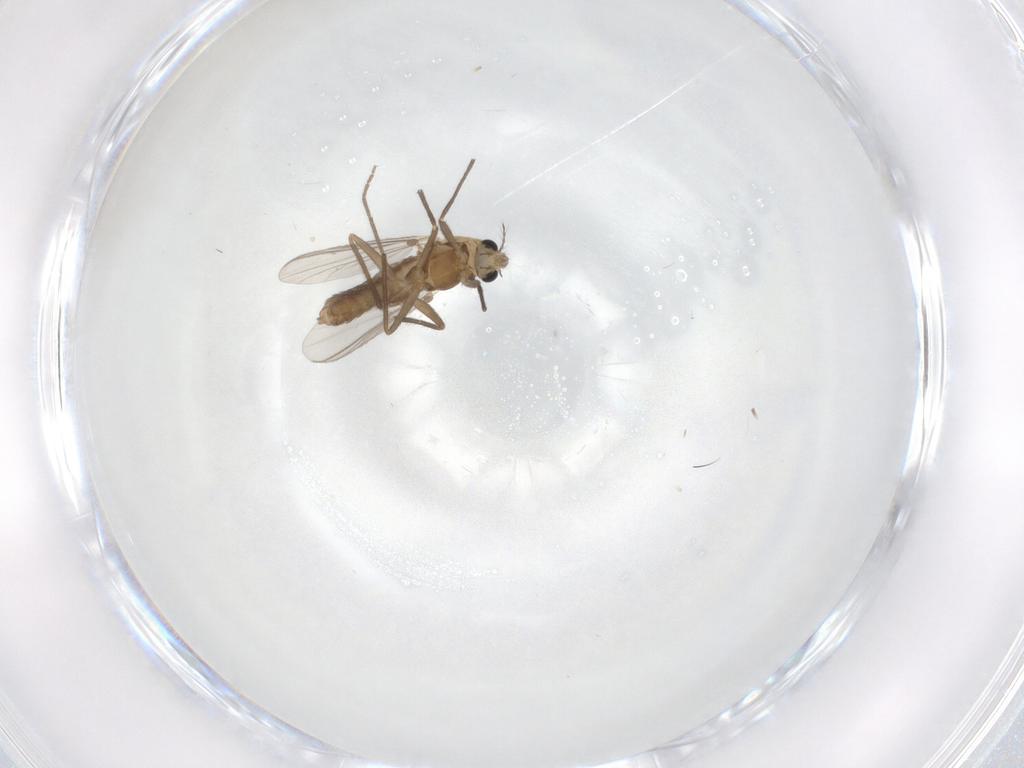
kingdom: Animalia
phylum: Arthropoda
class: Insecta
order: Diptera
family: Chironomidae
